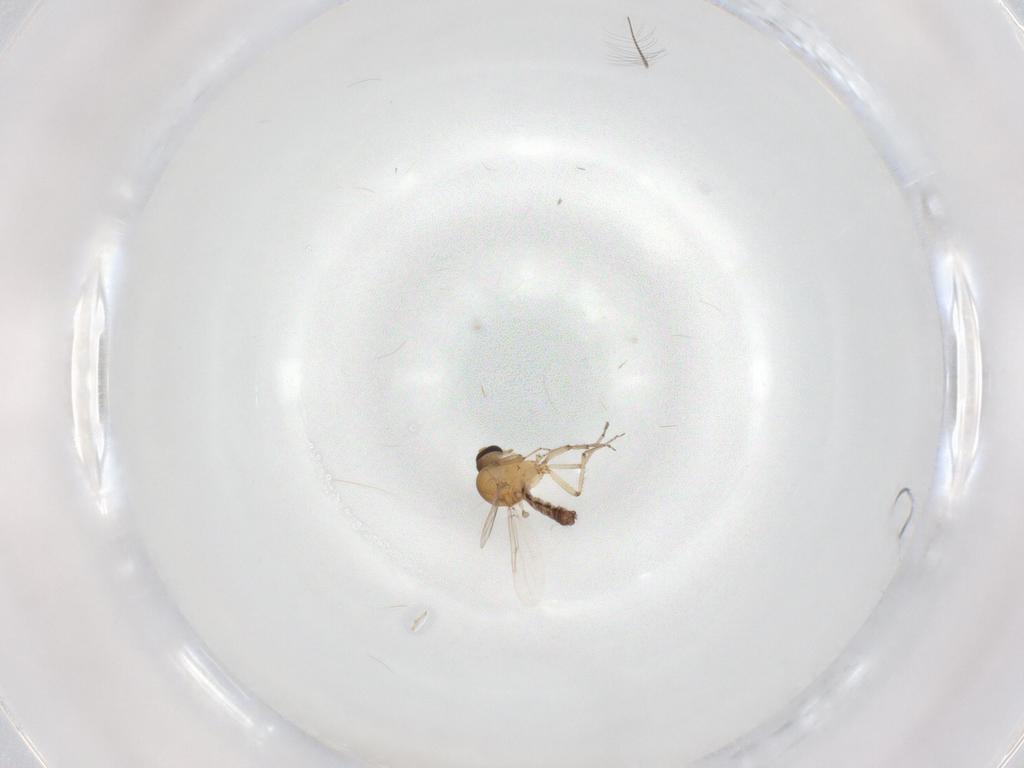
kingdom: Animalia
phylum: Arthropoda
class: Insecta
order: Diptera
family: Chironomidae
